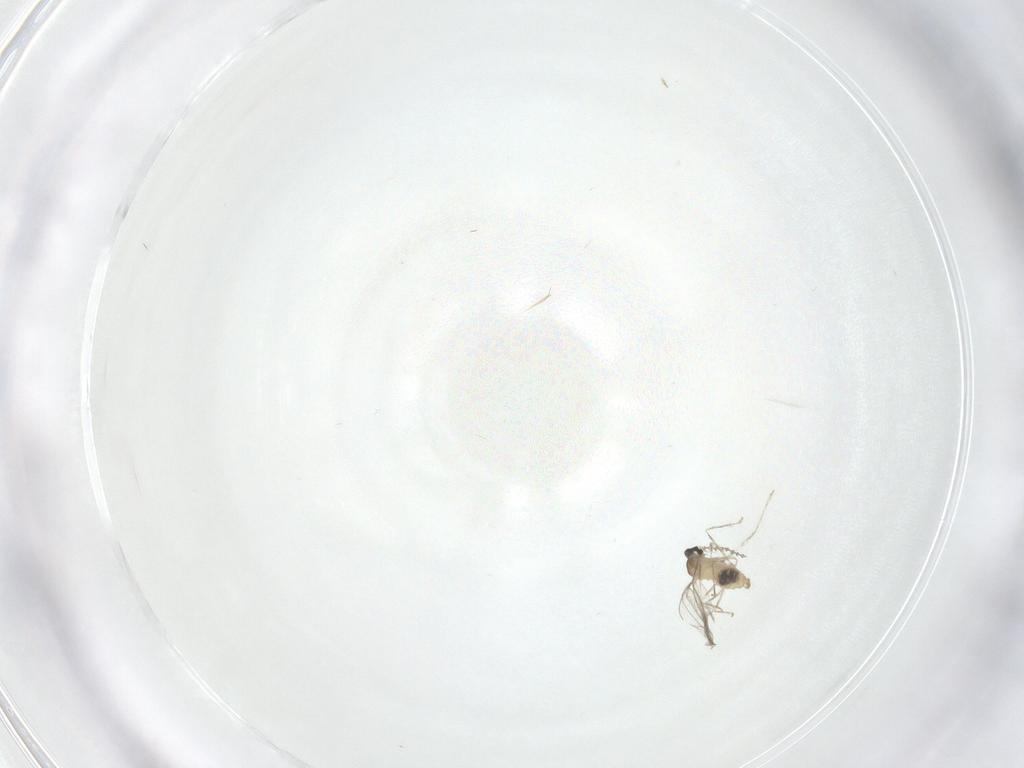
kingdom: Animalia
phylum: Arthropoda
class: Insecta
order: Diptera
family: Cecidomyiidae
